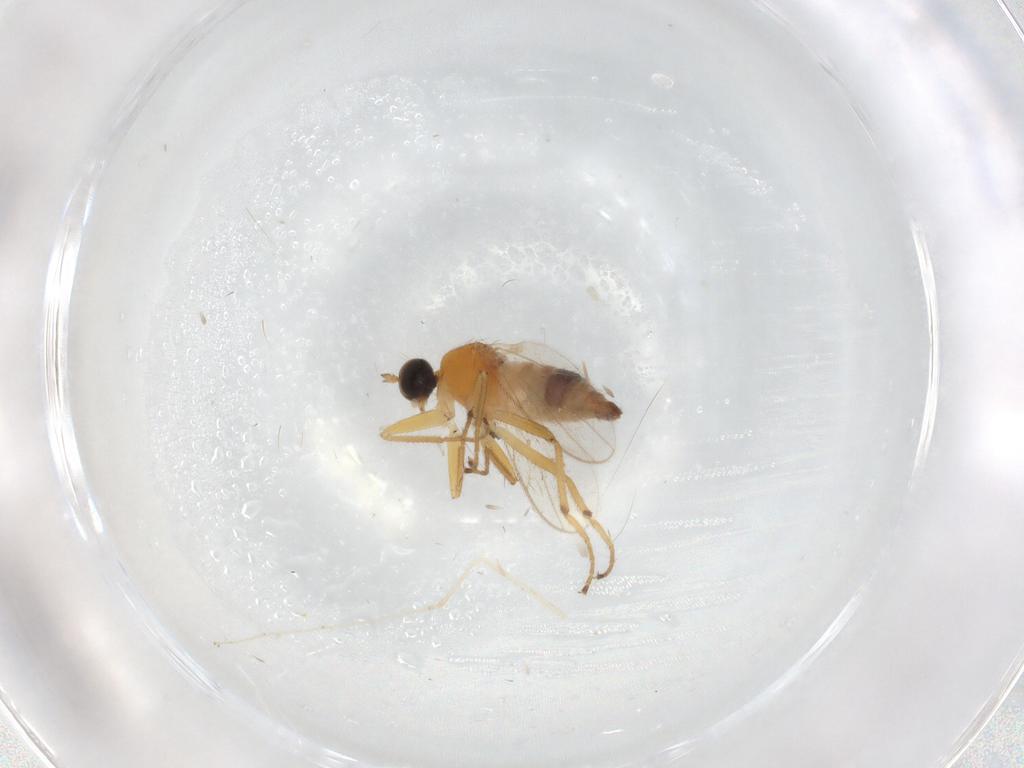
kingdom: Animalia
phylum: Arthropoda
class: Insecta
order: Diptera
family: Hybotidae
